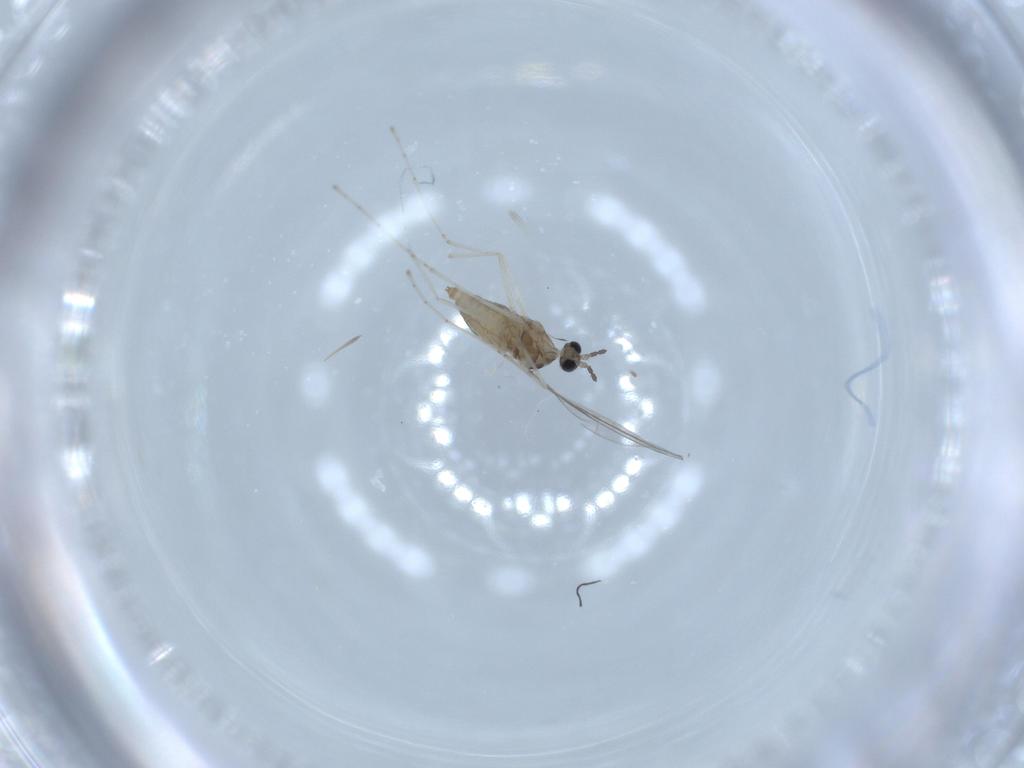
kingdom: Animalia
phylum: Arthropoda
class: Insecta
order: Diptera
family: Cecidomyiidae
